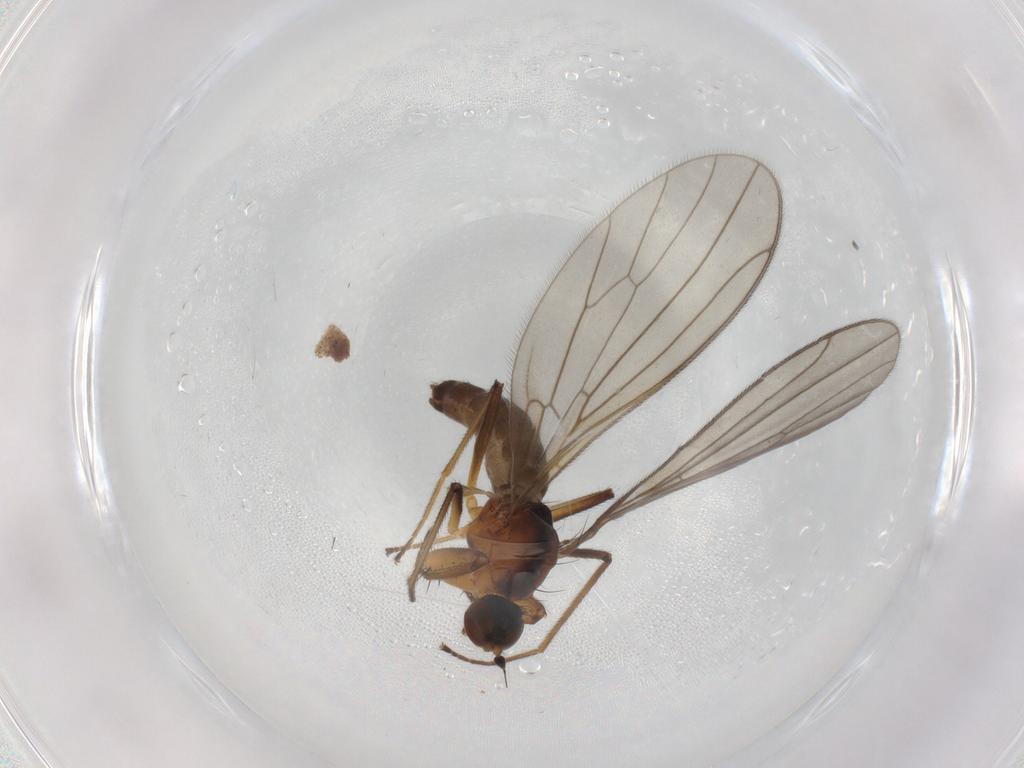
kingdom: Animalia
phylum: Arthropoda
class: Insecta
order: Diptera
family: Empididae
